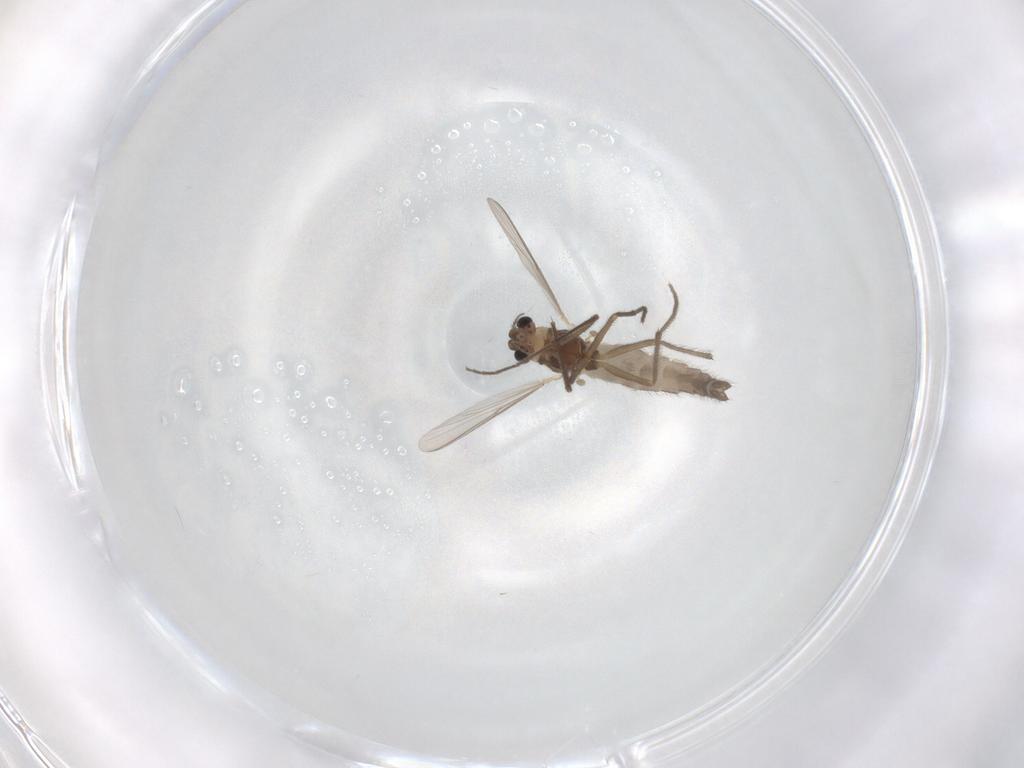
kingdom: Animalia
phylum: Arthropoda
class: Insecta
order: Diptera
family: Chironomidae
